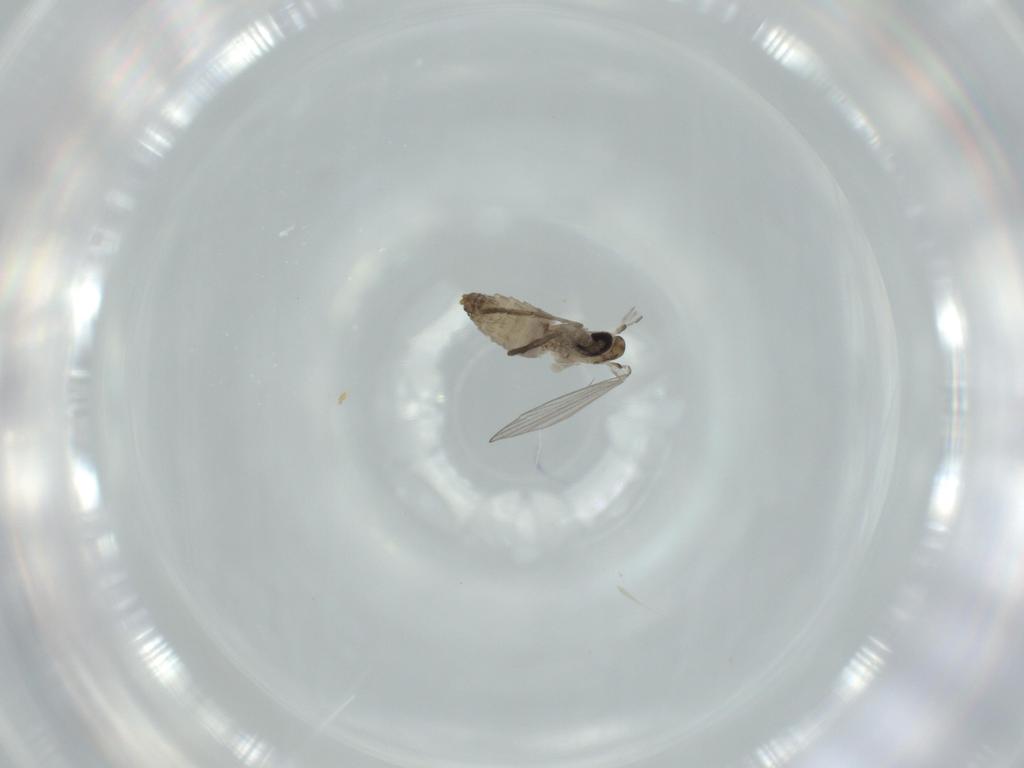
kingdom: Animalia
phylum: Arthropoda
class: Insecta
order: Diptera
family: Psychodidae
